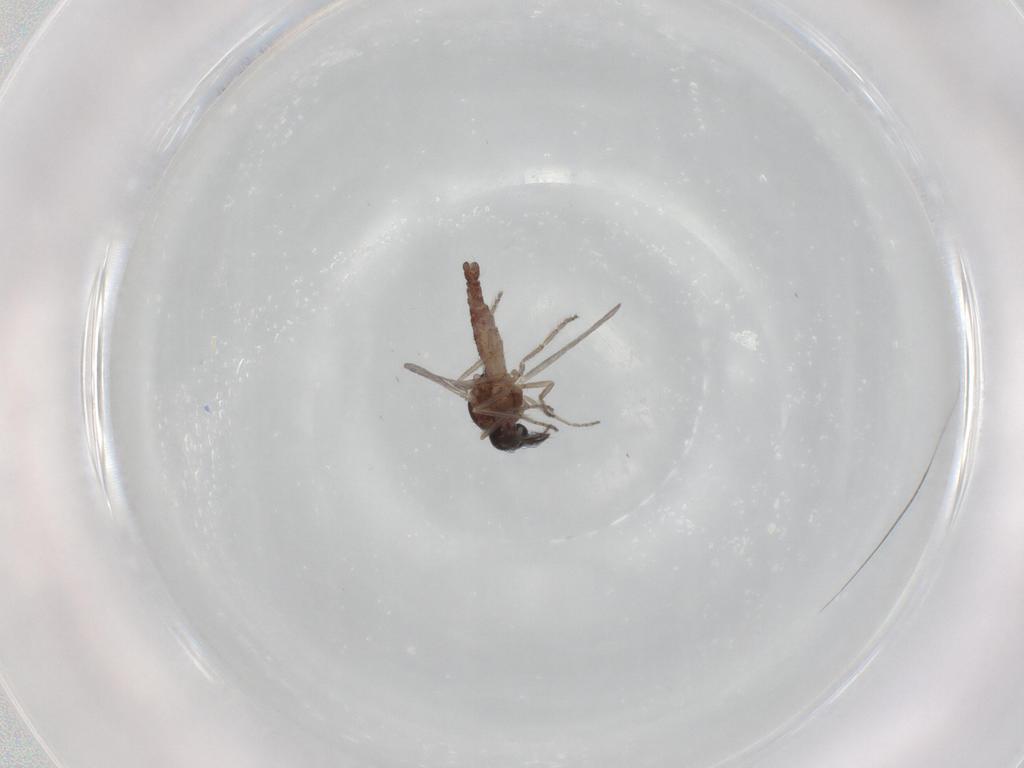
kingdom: Animalia
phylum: Arthropoda
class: Insecta
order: Diptera
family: Ceratopogonidae
